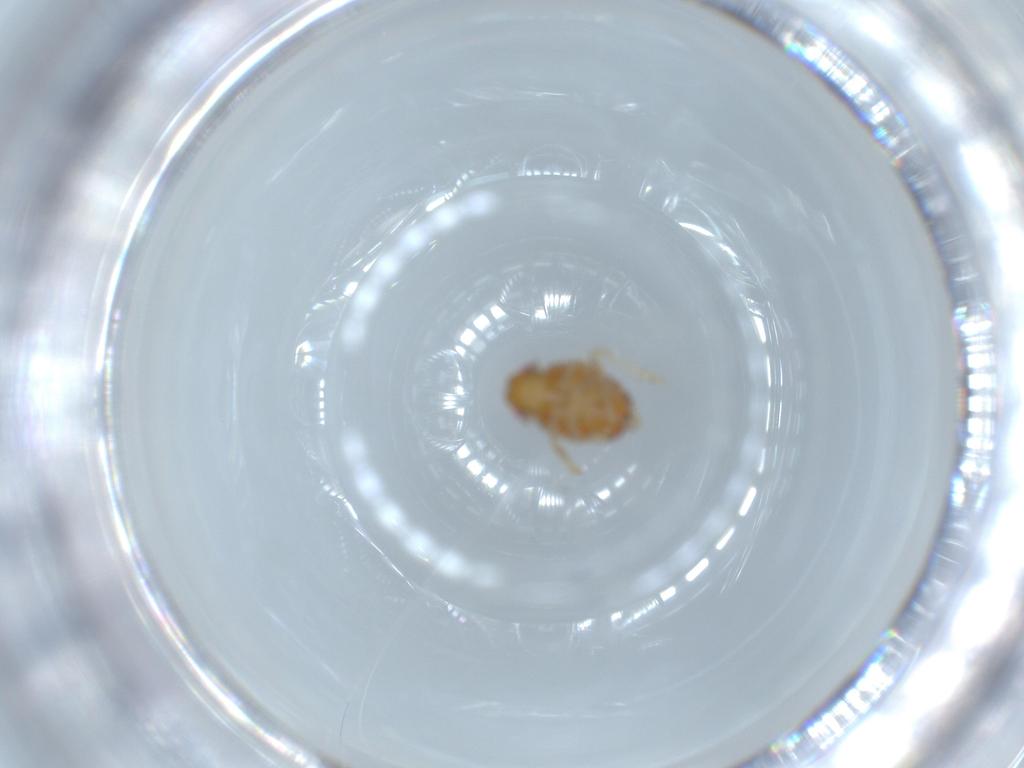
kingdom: Animalia
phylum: Arthropoda
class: Insecta
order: Hemiptera
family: Issidae
